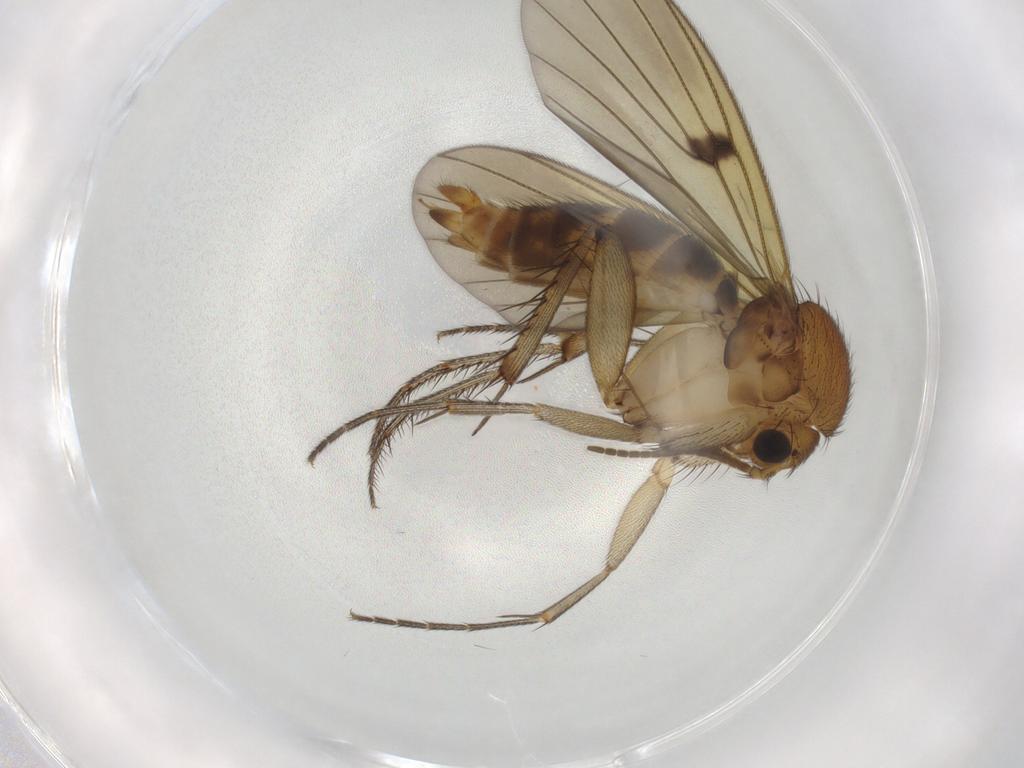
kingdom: Animalia
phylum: Arthropoda
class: Insecta
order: Diptera
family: Mycetophilidae
